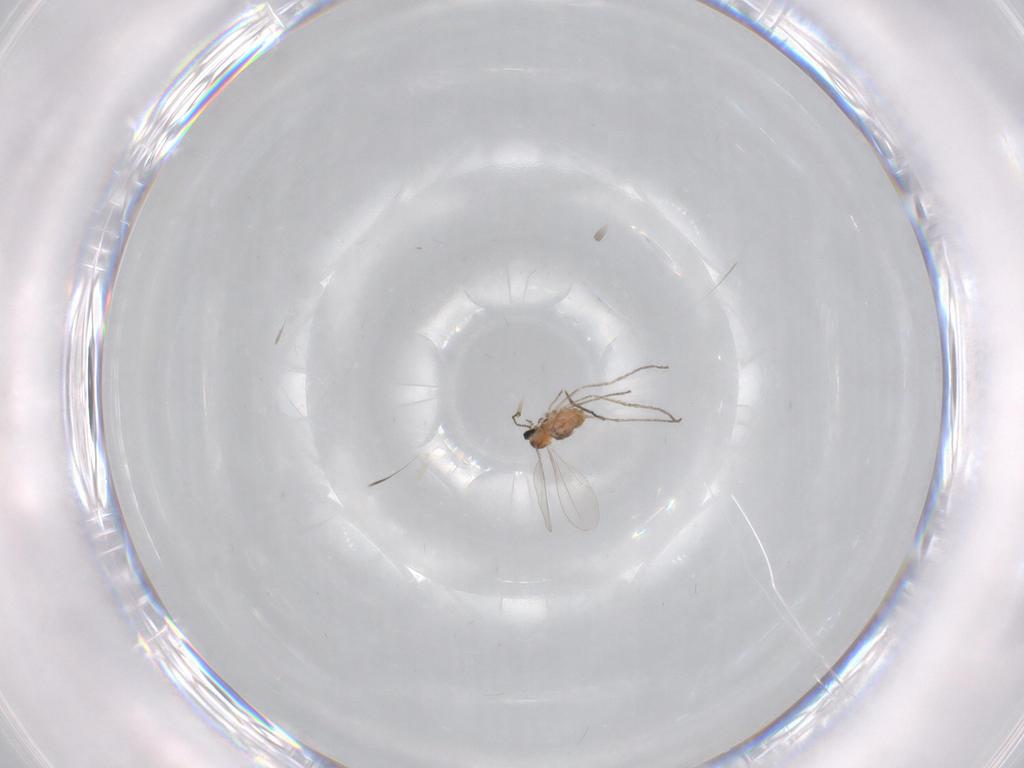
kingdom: Animalia
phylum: Arthropoda
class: Insecta
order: Diptera
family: Cecidomyiidae
